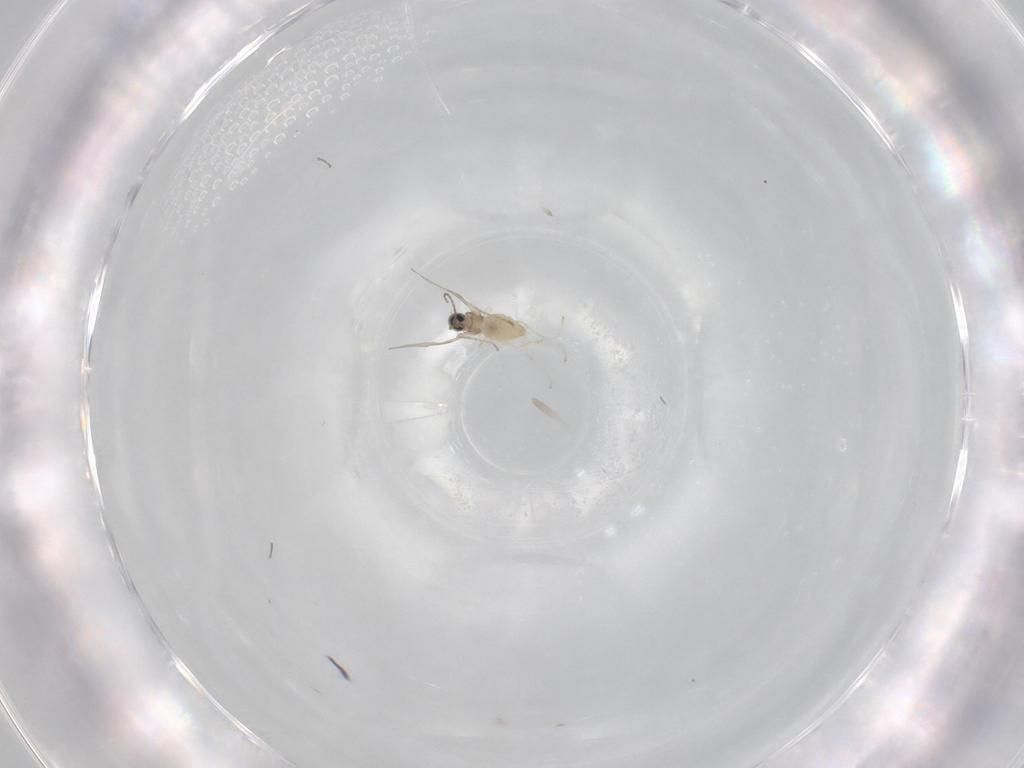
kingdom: Animalia
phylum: Arthropoda
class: Insecta
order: Diptera
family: Cecidomyiidae
